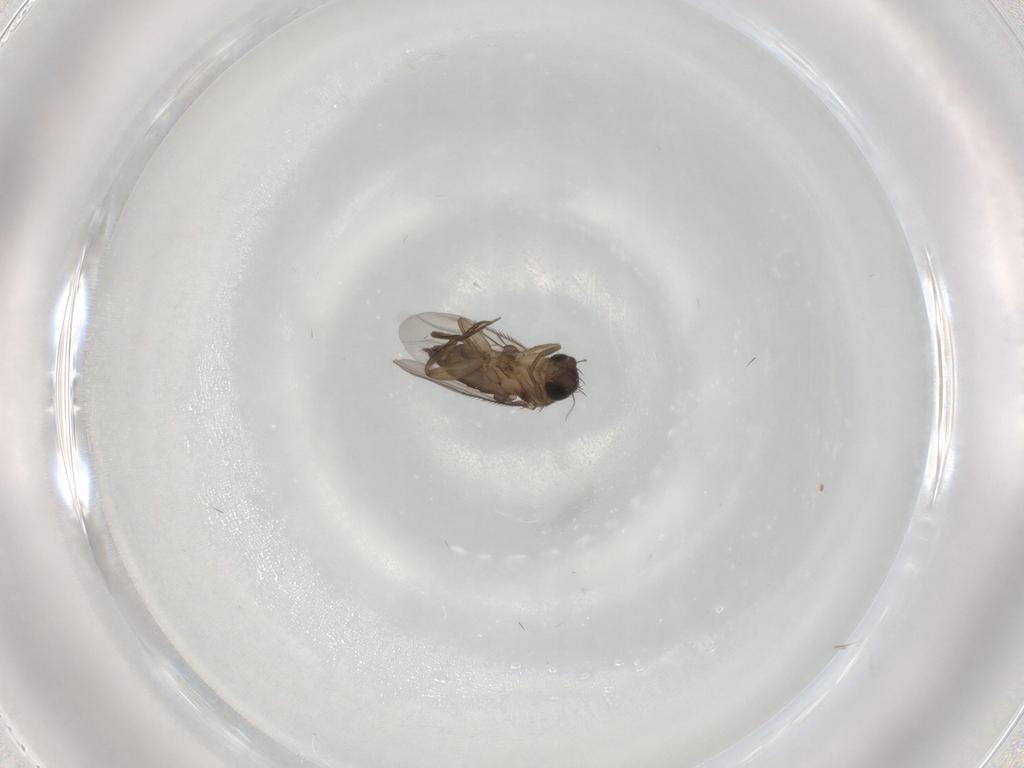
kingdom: Animalia
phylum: Arthropoda
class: Insecta
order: Diptera
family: Phoridae
